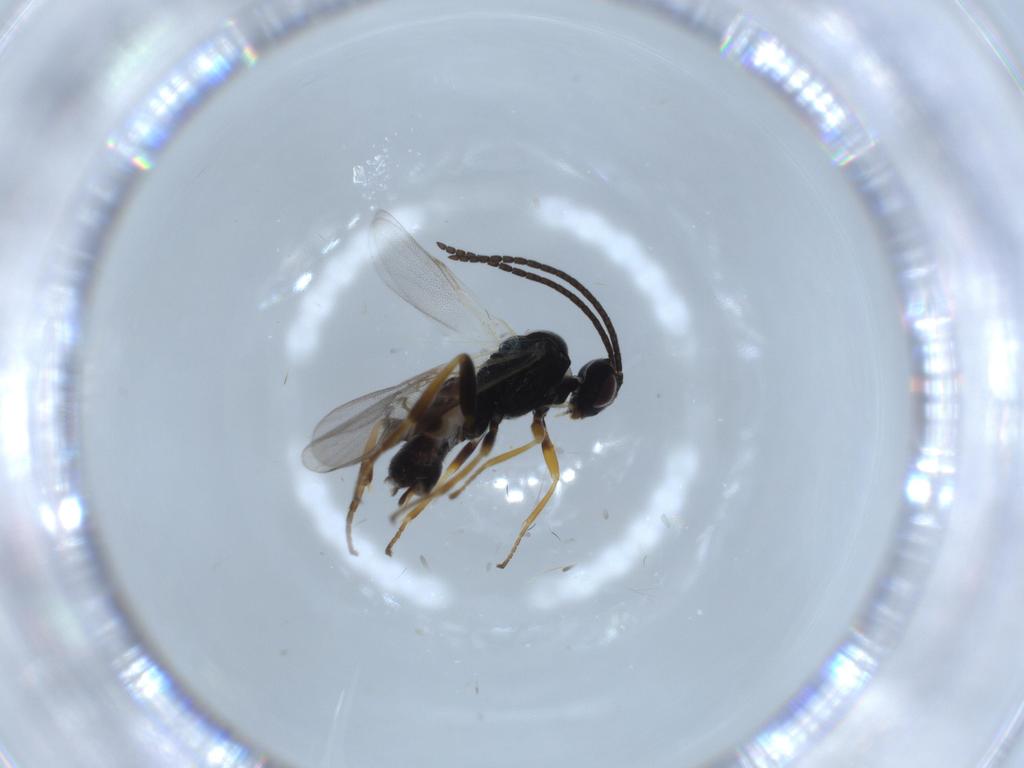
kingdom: Animalia
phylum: Arthropoda
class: Insecta
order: Hymenoptera
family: Braconidae
